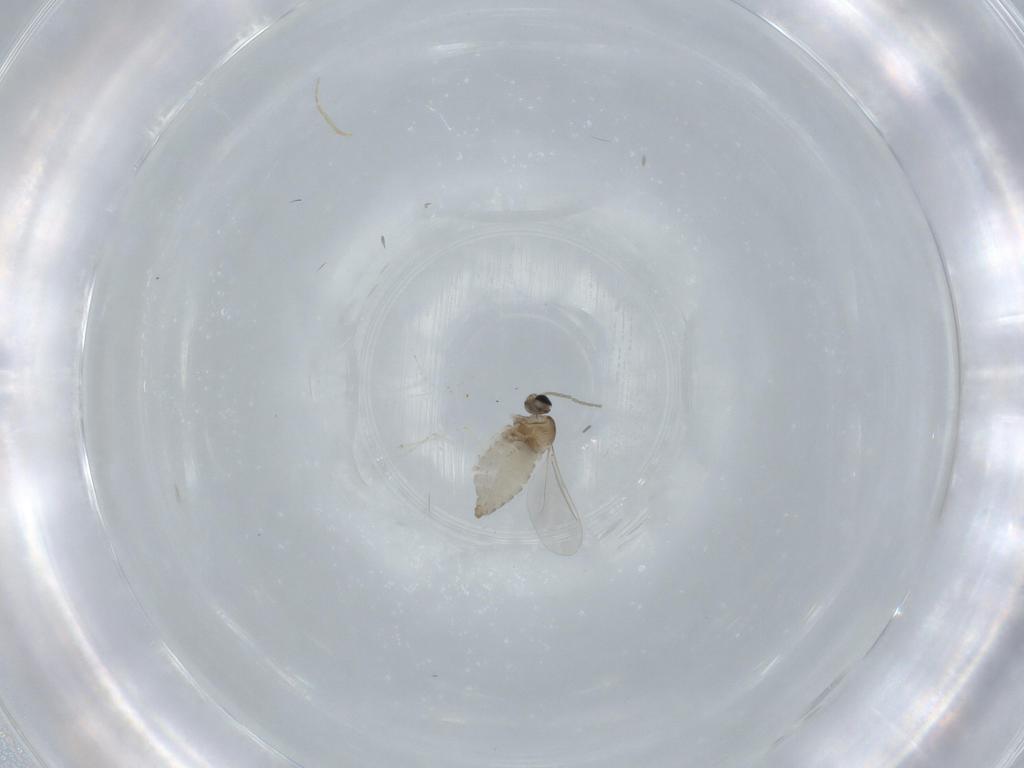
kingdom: Animalia
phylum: Arthropoda
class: Insecta
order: Diptera
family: Cecidomyiidae
